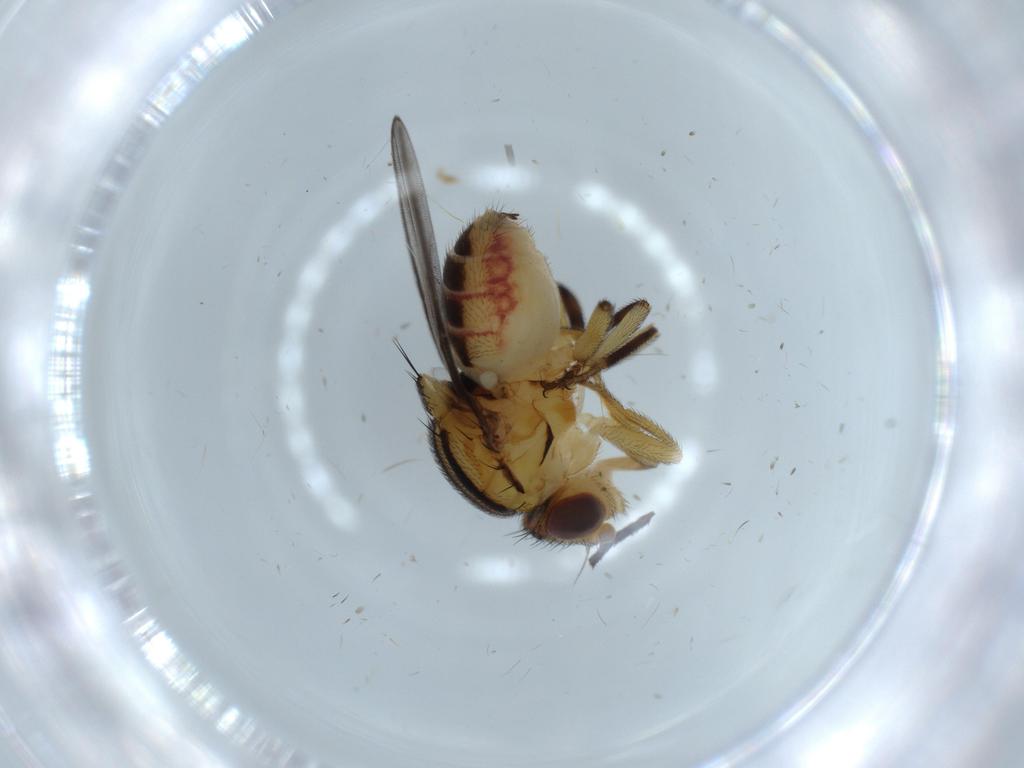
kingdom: Animalia
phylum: Arthropoda
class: Insecta
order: Diptera
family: Chloropidae
